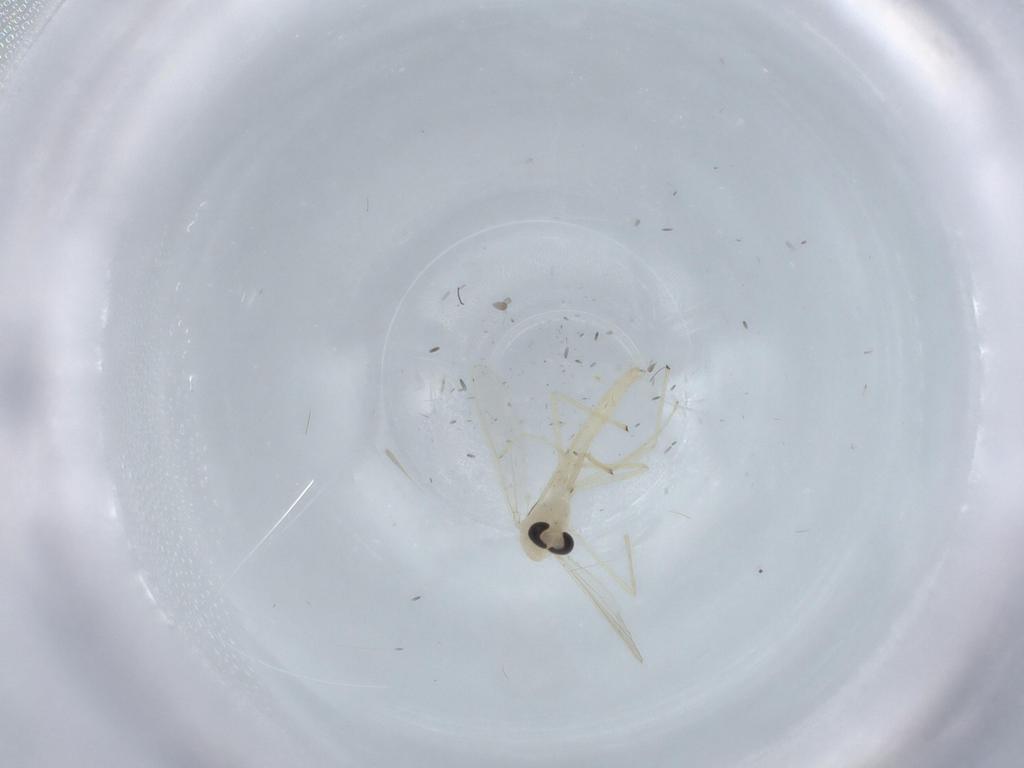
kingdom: Animalia
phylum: Arthropoda
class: Insecta
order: Diptera
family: Chironomidae
